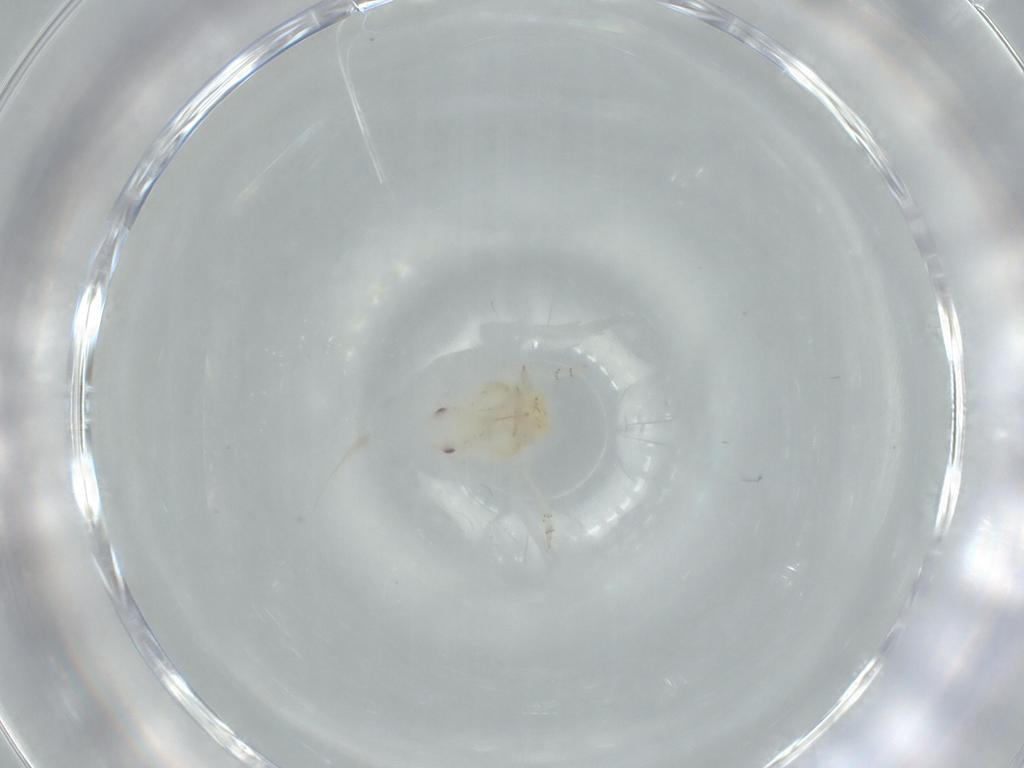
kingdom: Animalia
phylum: Arthropoda
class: Insecta
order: Hemiptera
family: Flatidae
